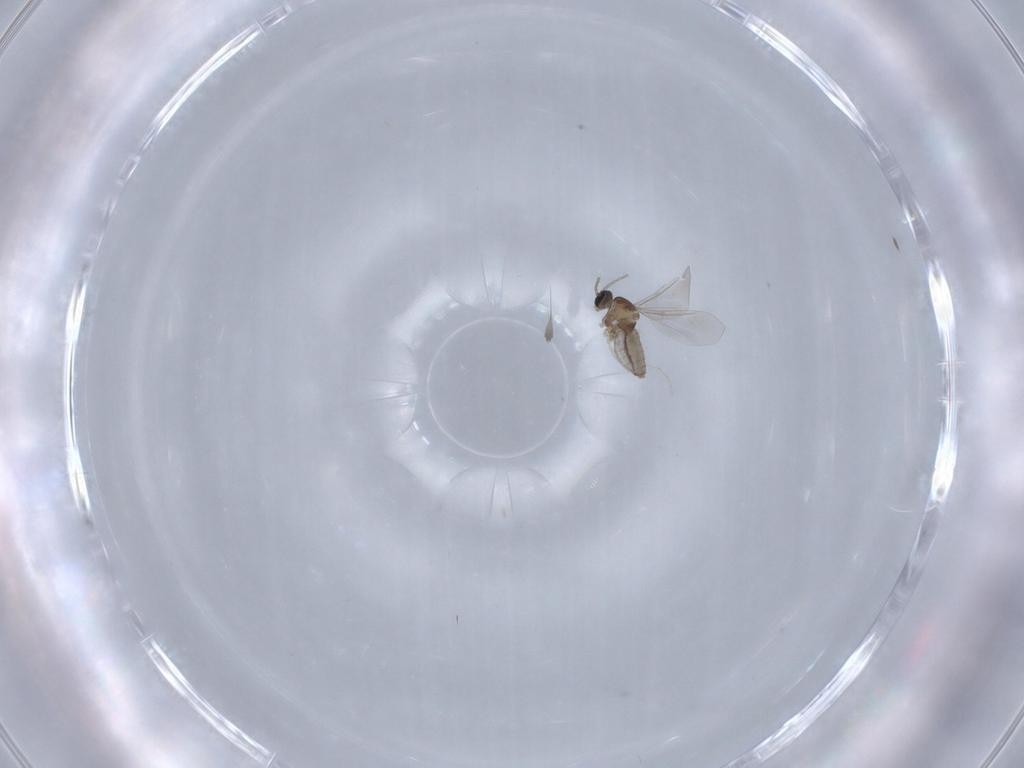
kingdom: Animalia
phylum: Arthropoda
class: Insecta
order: Diptera
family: Cecidomyiidae
